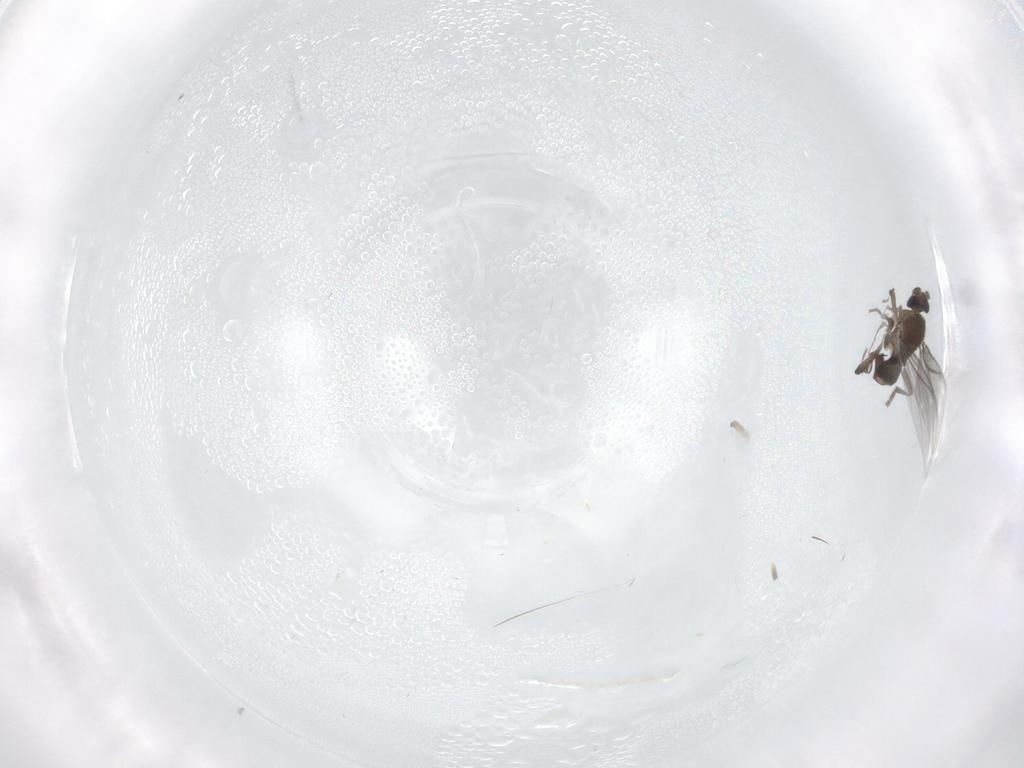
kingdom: Animalia
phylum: Arthropoda
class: Insecta
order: Diptera
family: Phoridae
